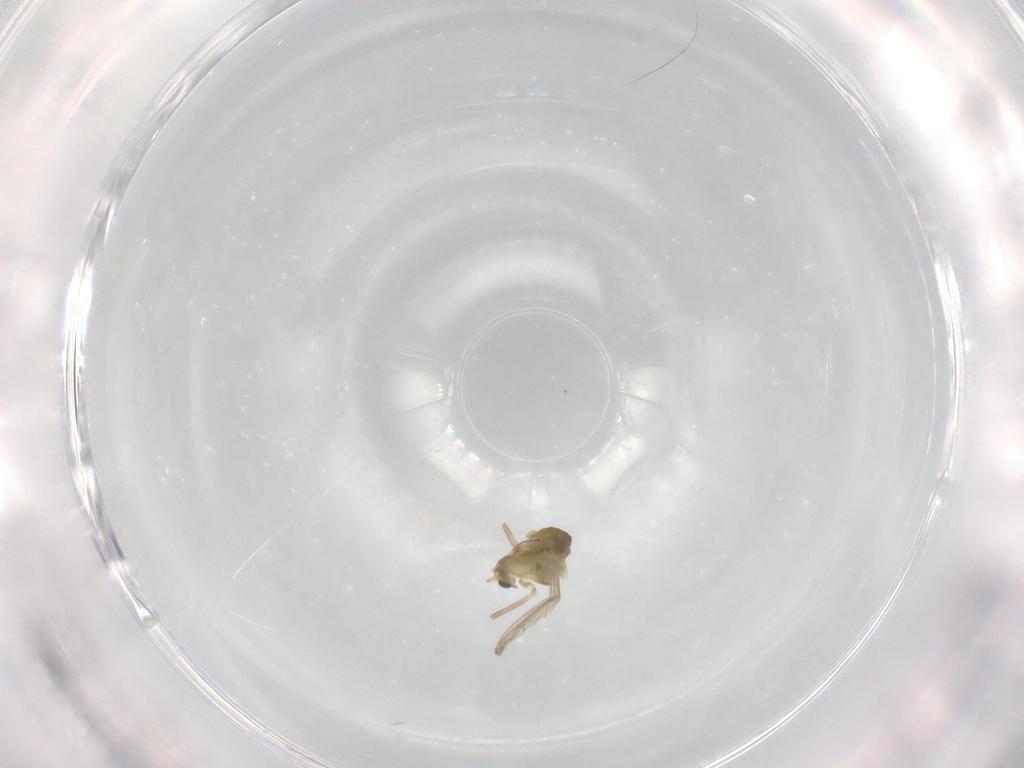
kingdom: Animalia
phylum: Arthropoda
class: Insecta
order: Diptera
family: Chironomidae
